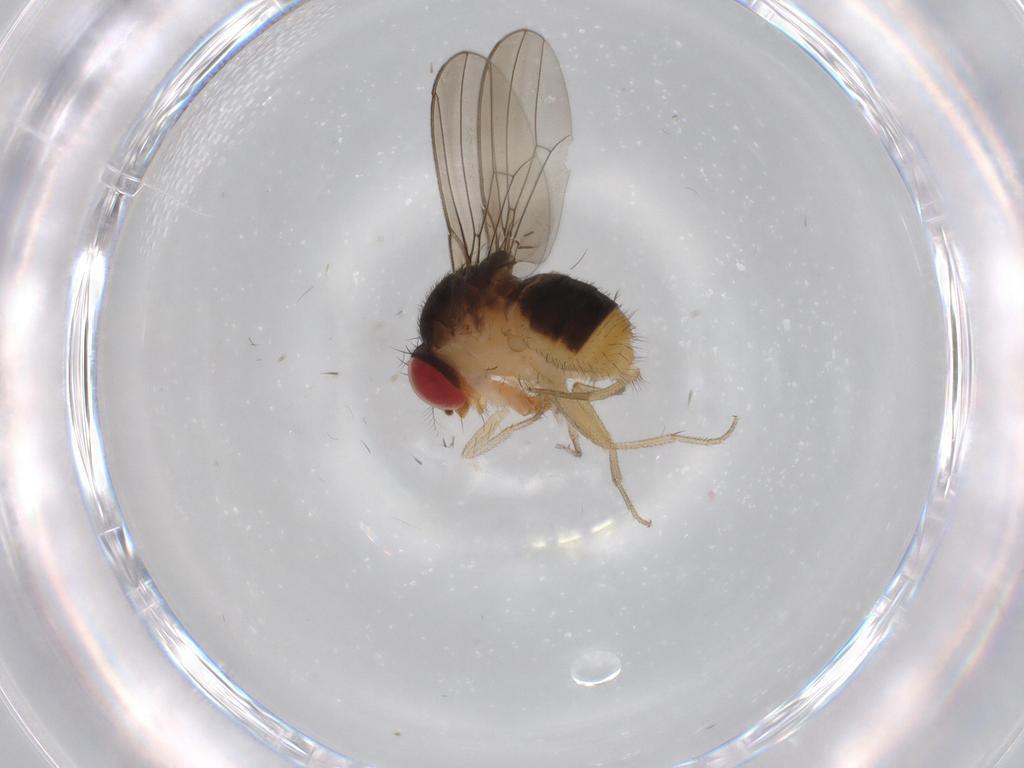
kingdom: Animalia
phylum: Arthropoda
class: Insecta
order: Diptera
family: Drosophilidae
